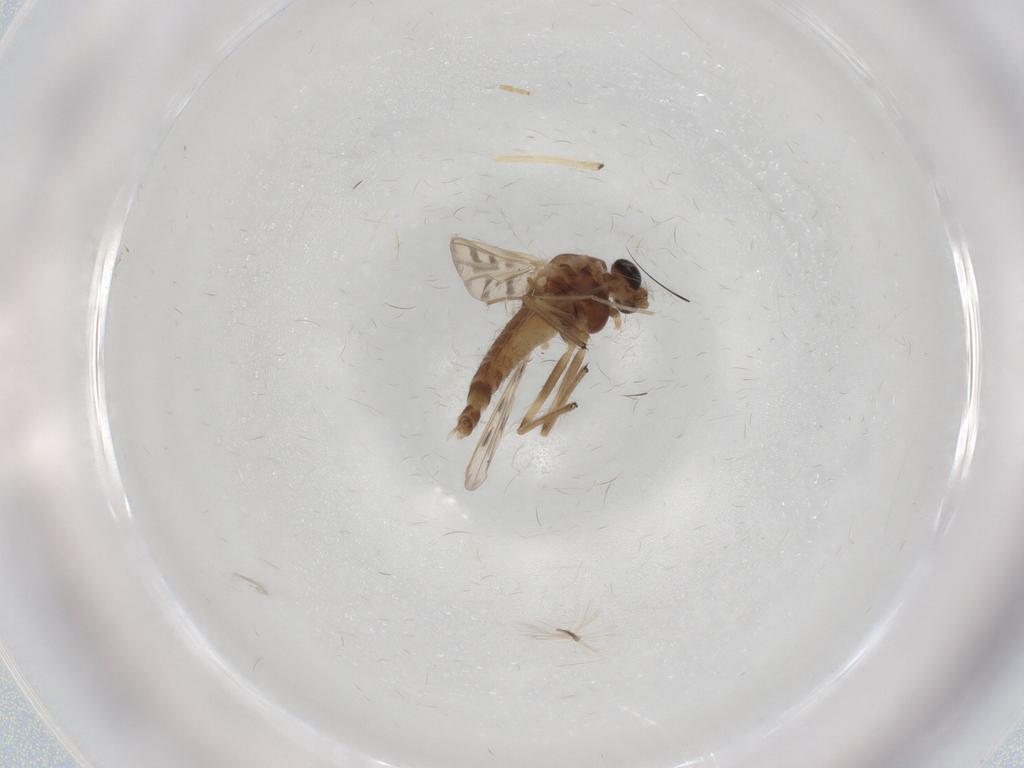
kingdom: Animalia
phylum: Arthropoda
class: Insecta
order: Diptera
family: Chironomidae
